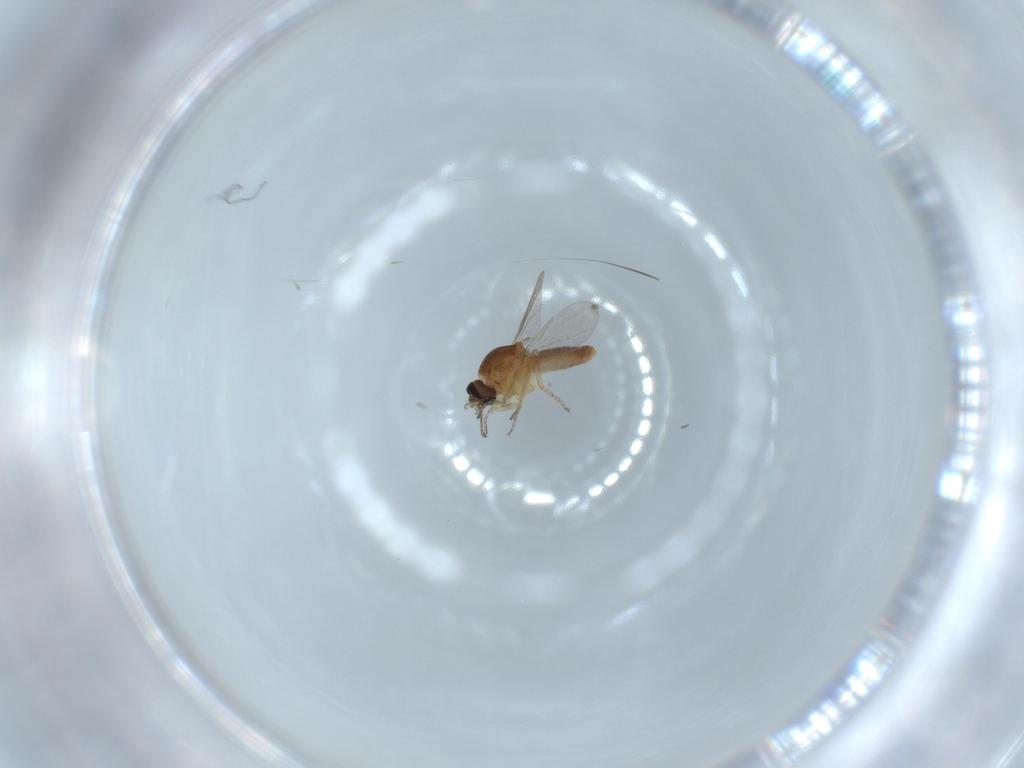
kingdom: Animalia
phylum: Arthropoda
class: Insecta
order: Diptera
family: Ceratopogonidae
